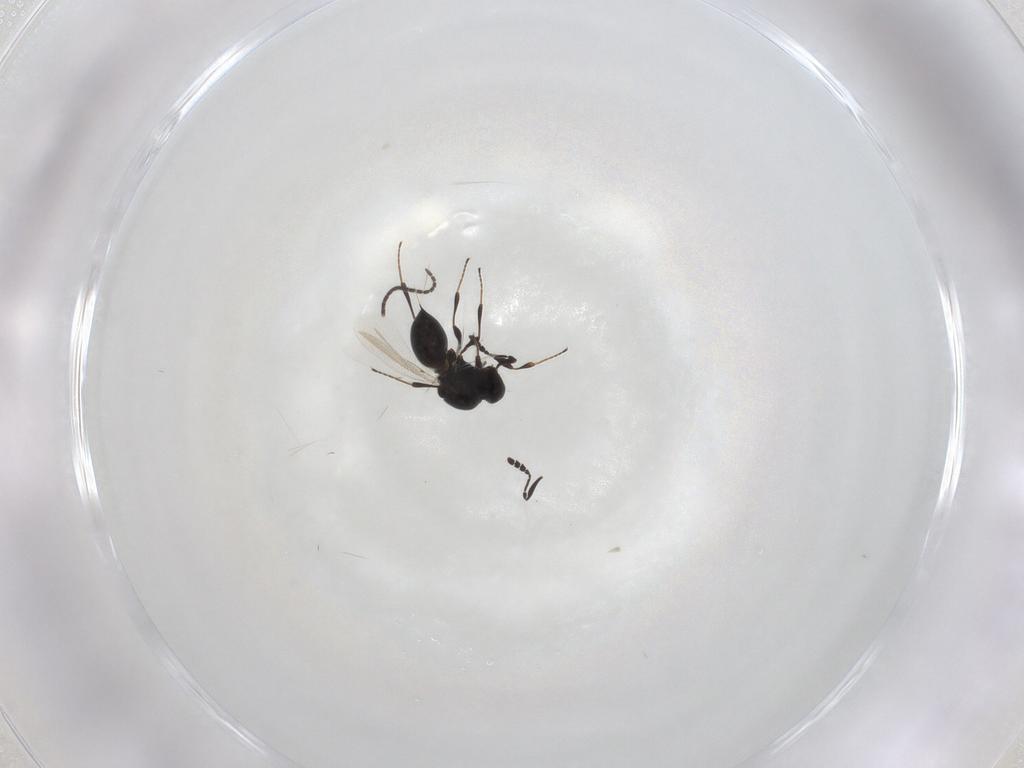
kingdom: Animalia
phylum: Arthropoda
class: Insecta
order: Hymenoptera
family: Platygastridae
